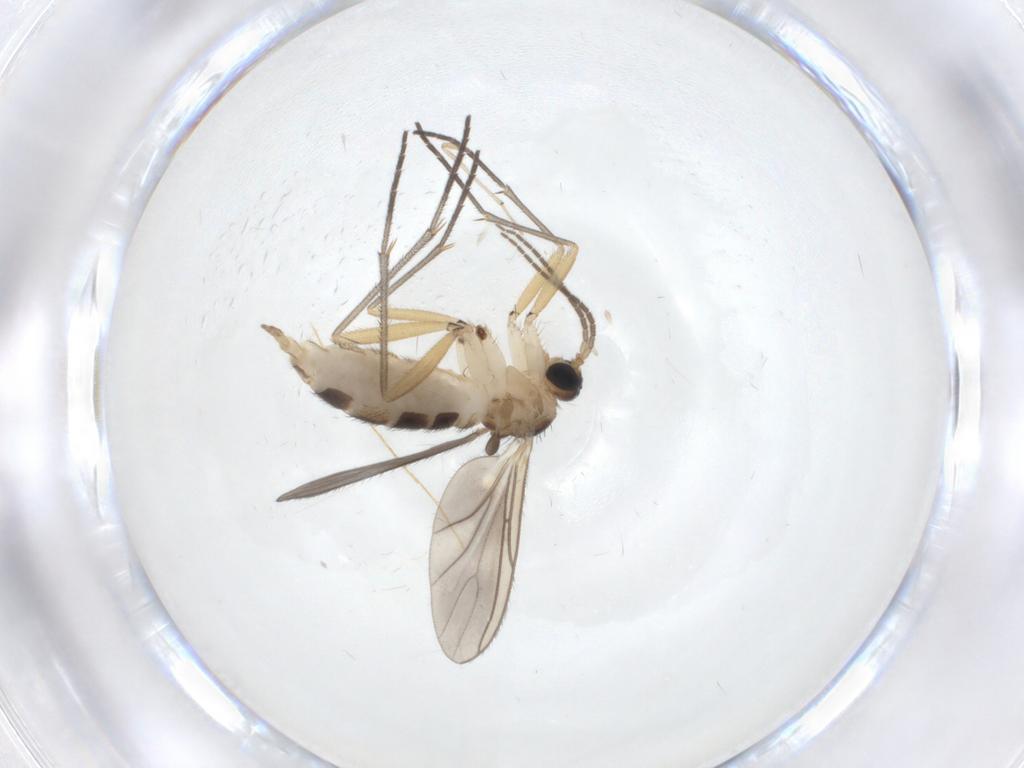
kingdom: Animalia
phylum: Arthropoda
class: Insecta
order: Diptera
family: Sciaridae
